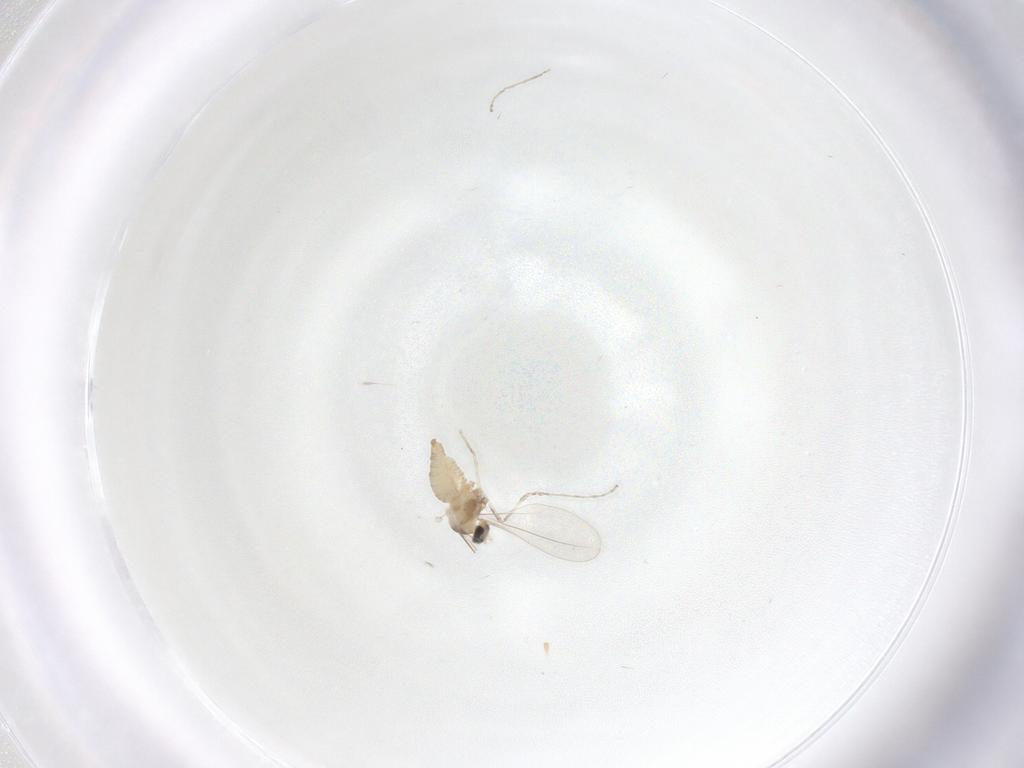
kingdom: Animalia
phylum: Arthropoda
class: Insecta
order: Diptera
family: Cecidomyiidae
